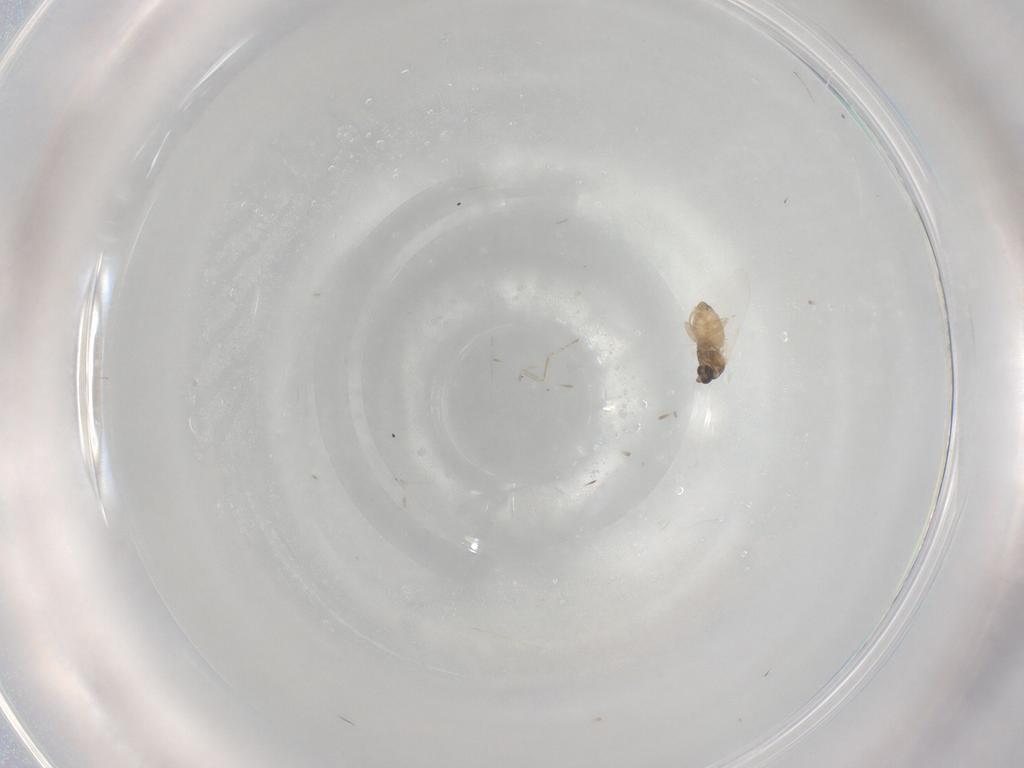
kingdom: Animalia
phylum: Arthropoda
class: Insecta
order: Diptera
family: Cecidomyiidae
